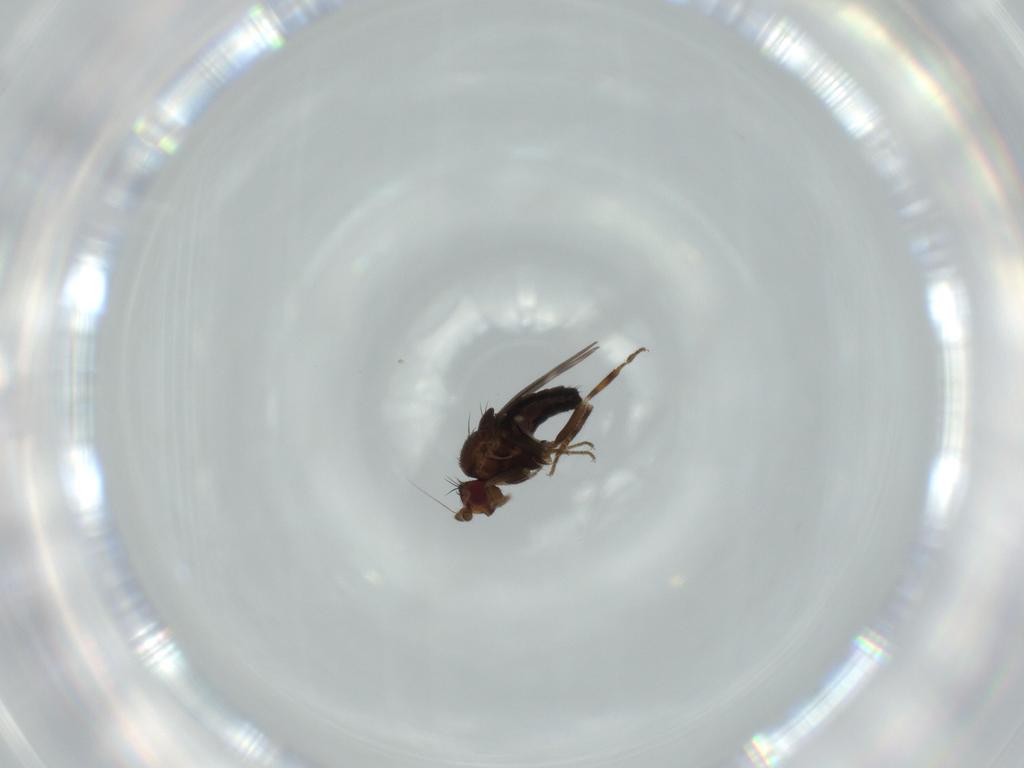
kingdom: Animalia
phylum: Arthropoda
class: Insecta
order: Diptera
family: Sphaeroceridae
